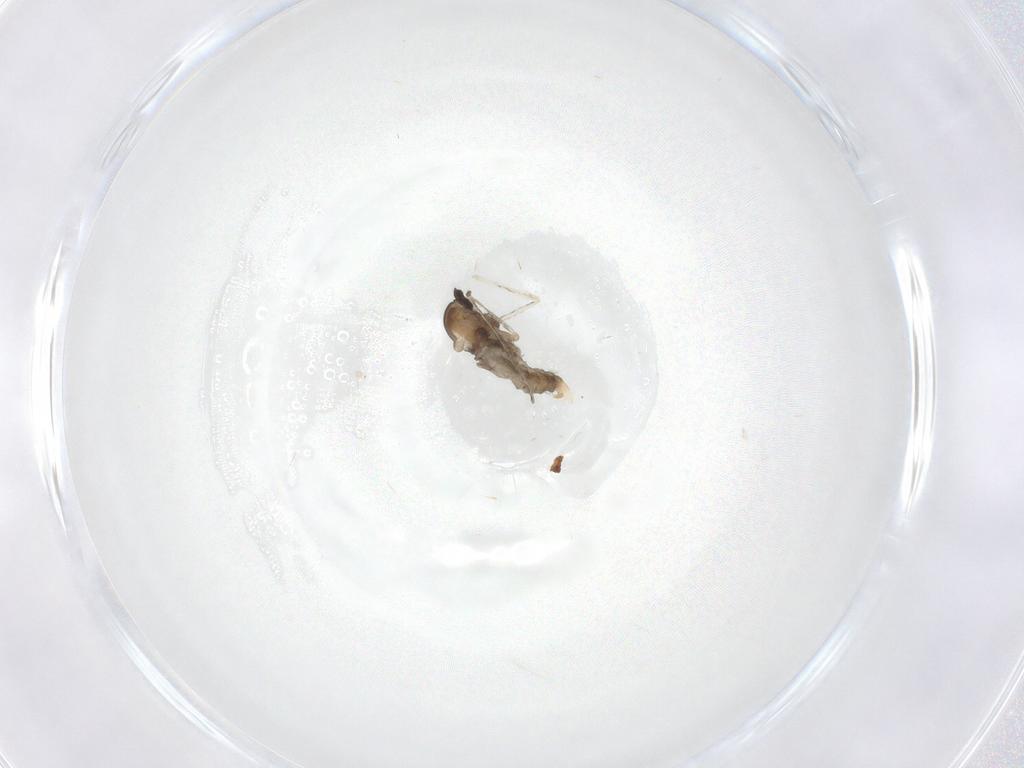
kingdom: Animalia
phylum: Arthropoda
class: Insecta
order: Diptera
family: Cecidomyiidae
